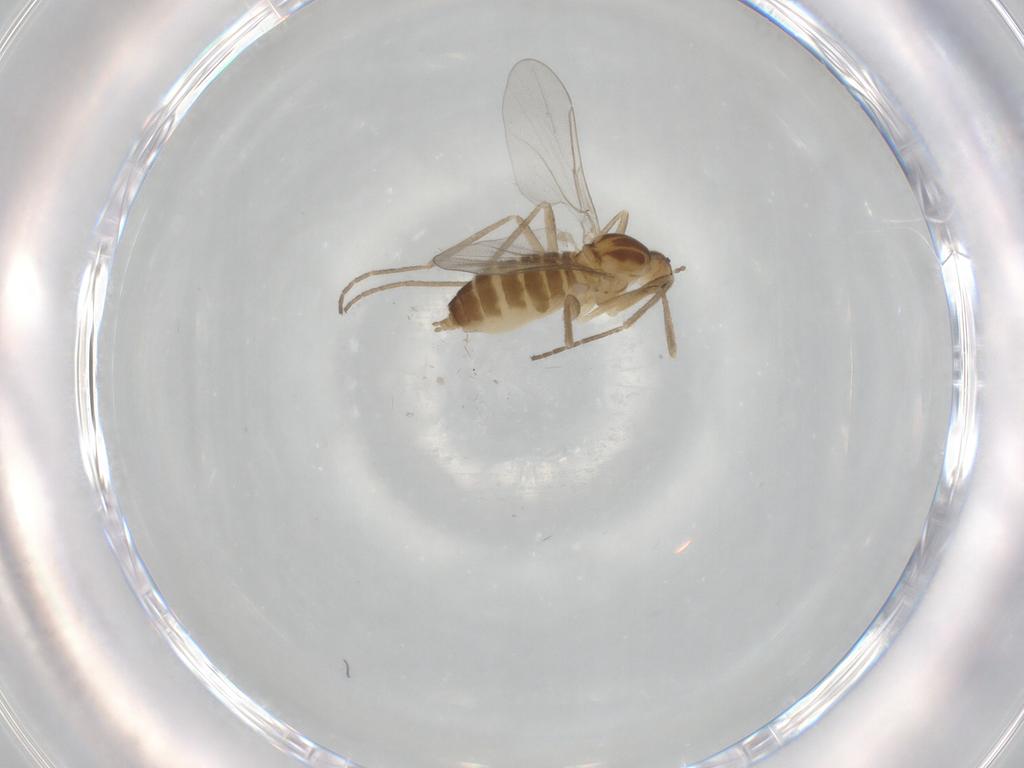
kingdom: Animalia
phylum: Arthropoda
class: Insecta
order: Diptera
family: Cecidomyiidae
